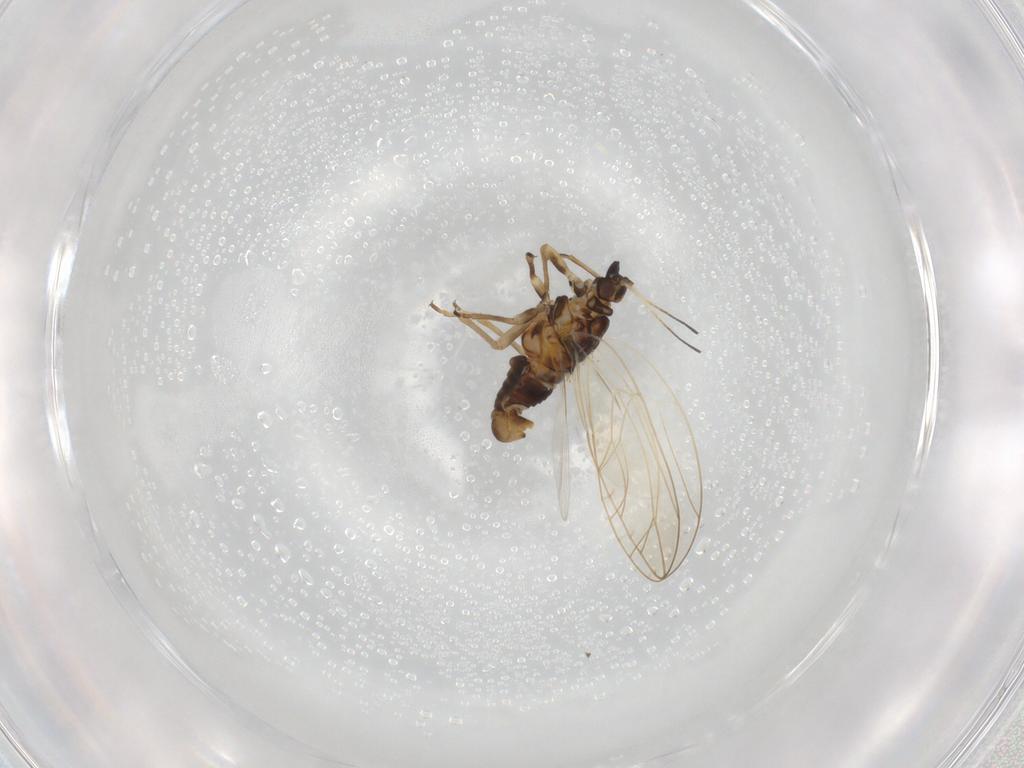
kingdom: Animalia
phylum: Arthropoda
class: Insecta
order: Hemiptera
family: Triozidae
